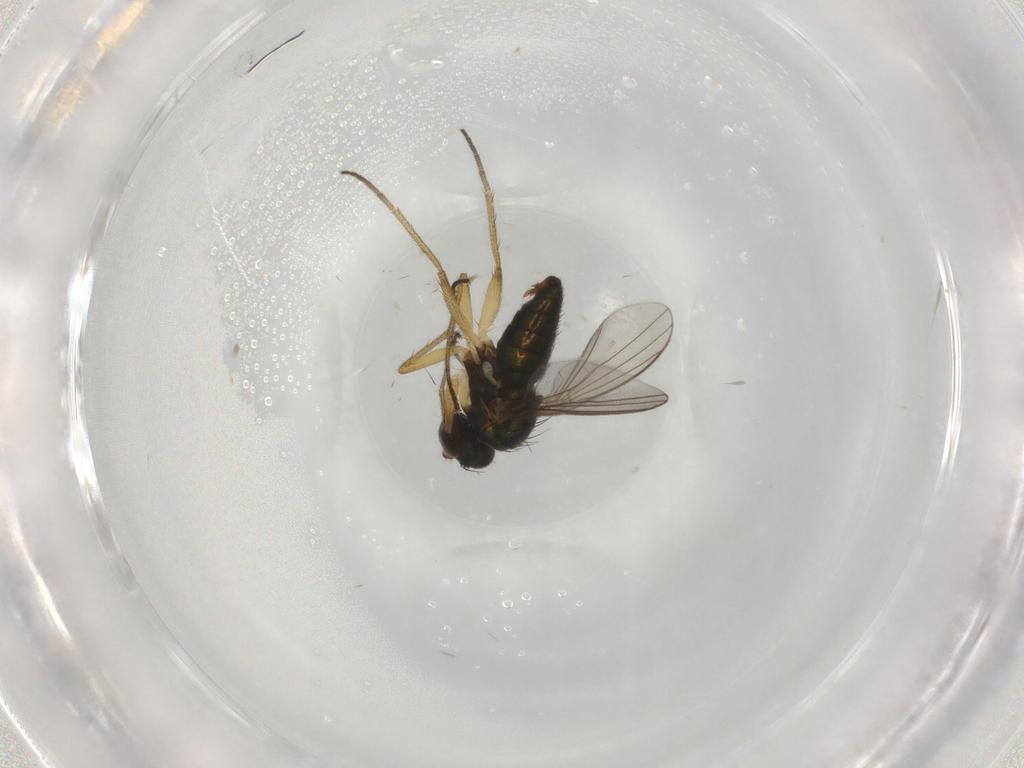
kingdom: Animalia
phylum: Arthropoda
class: Insecta
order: Diptera
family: Dolichopodidae
